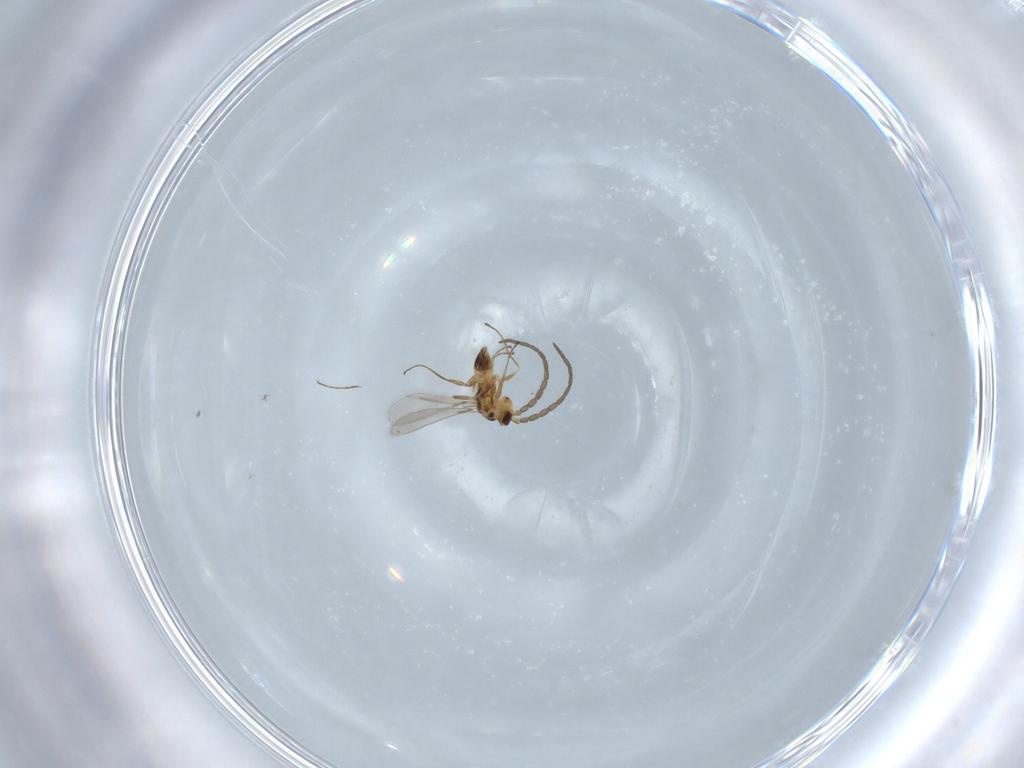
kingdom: Animalia
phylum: Arthropoda
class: Insecta
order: Hymenoptera
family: Mymaridae
